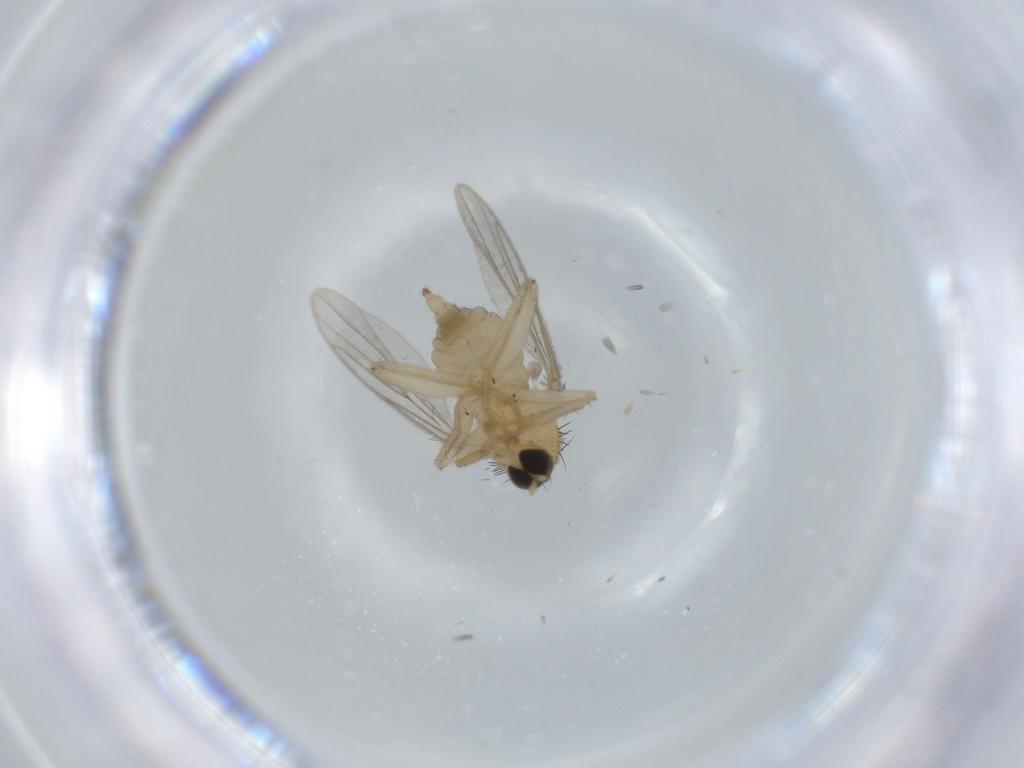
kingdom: Animalia
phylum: Arthropoda
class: Insecta
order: Diptera
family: Hybotidae
